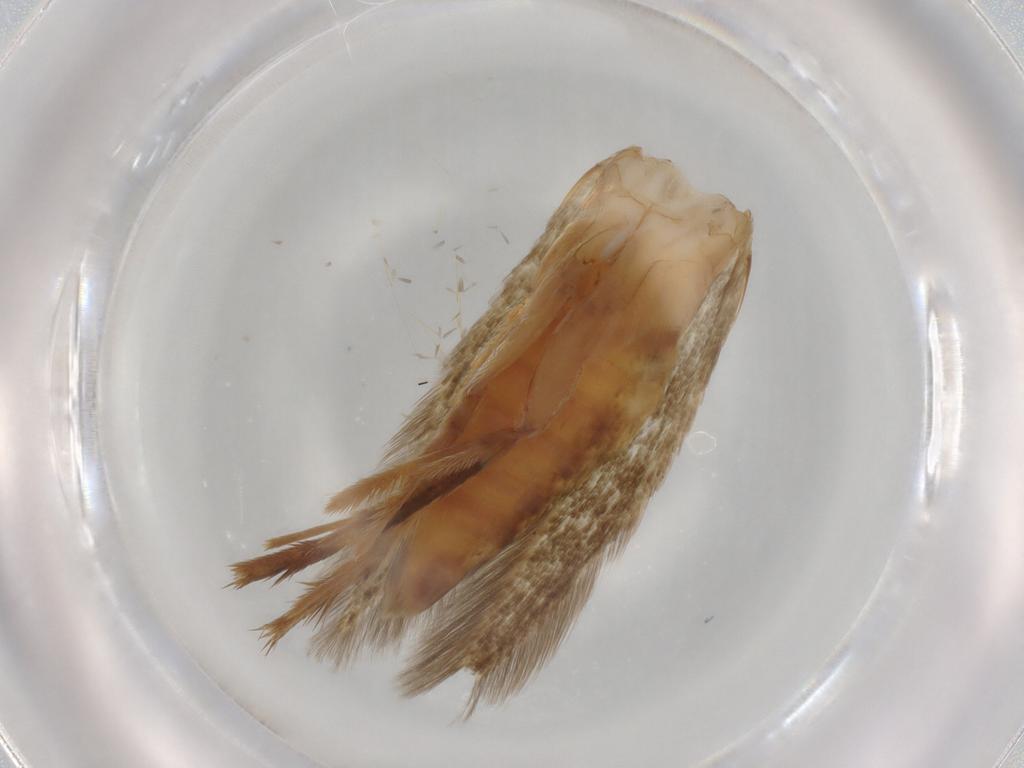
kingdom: Animalia
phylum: Arthropoda
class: Insecta
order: Lepidoptera
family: Tineidae
